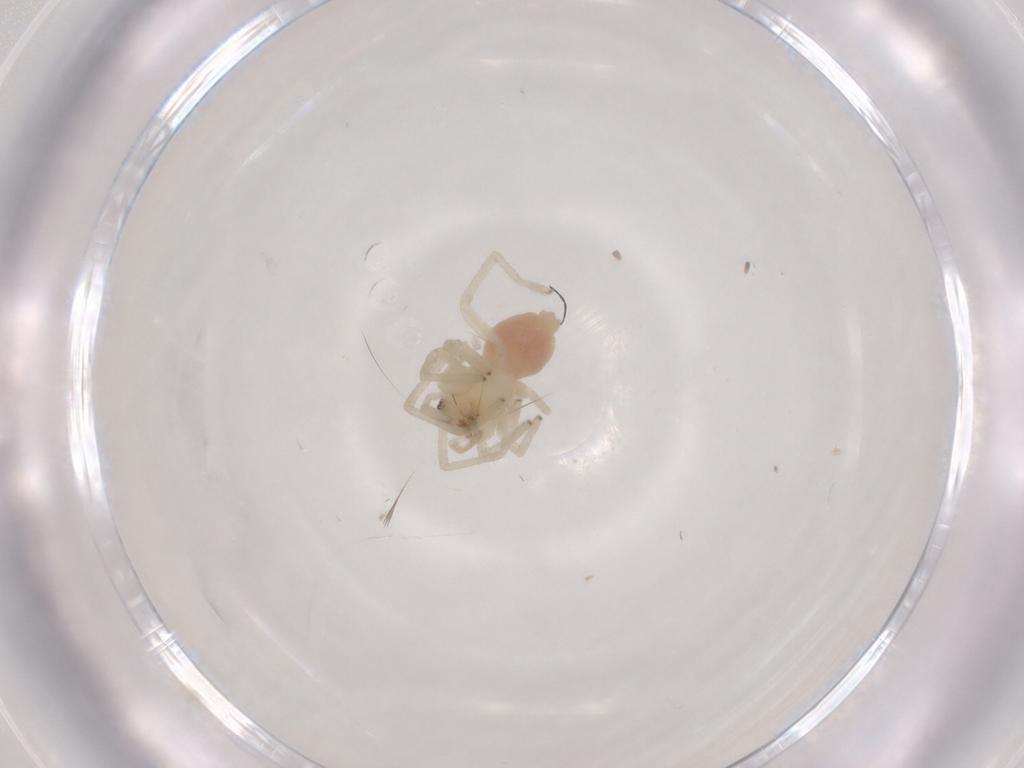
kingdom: Animalia
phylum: Arthropoda
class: Arachnida
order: Araneae
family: Cheiracanthiidae
